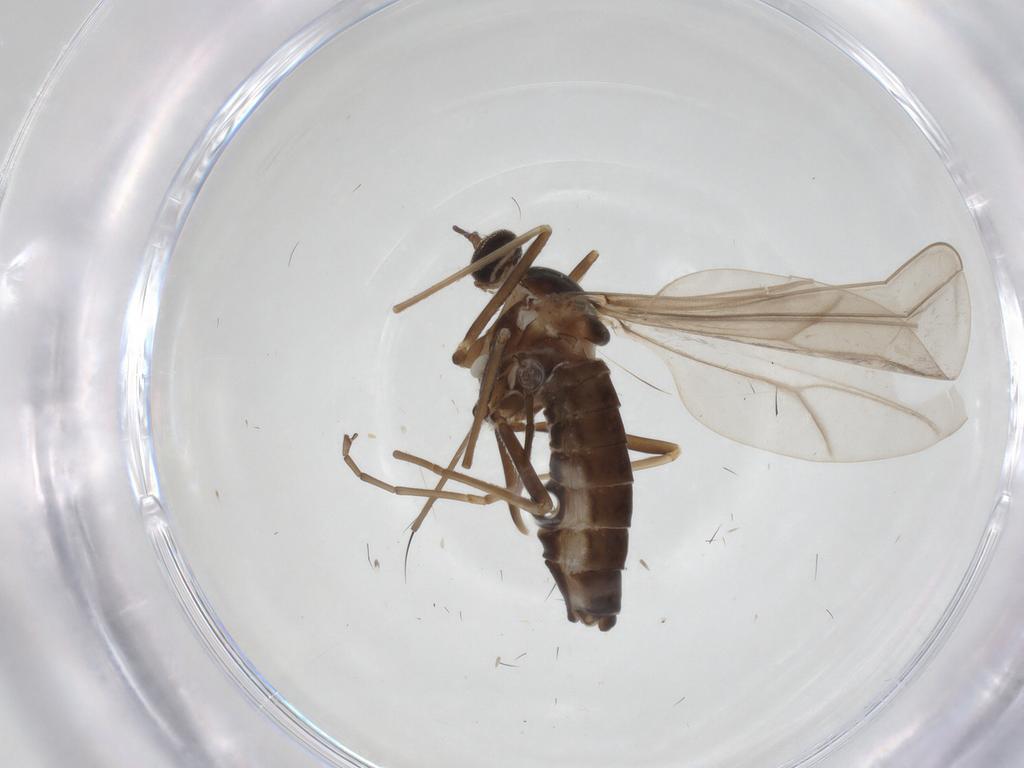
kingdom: Animalia
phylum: Arthropoda
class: Insecta
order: Diptera
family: Cecidomyiidae
